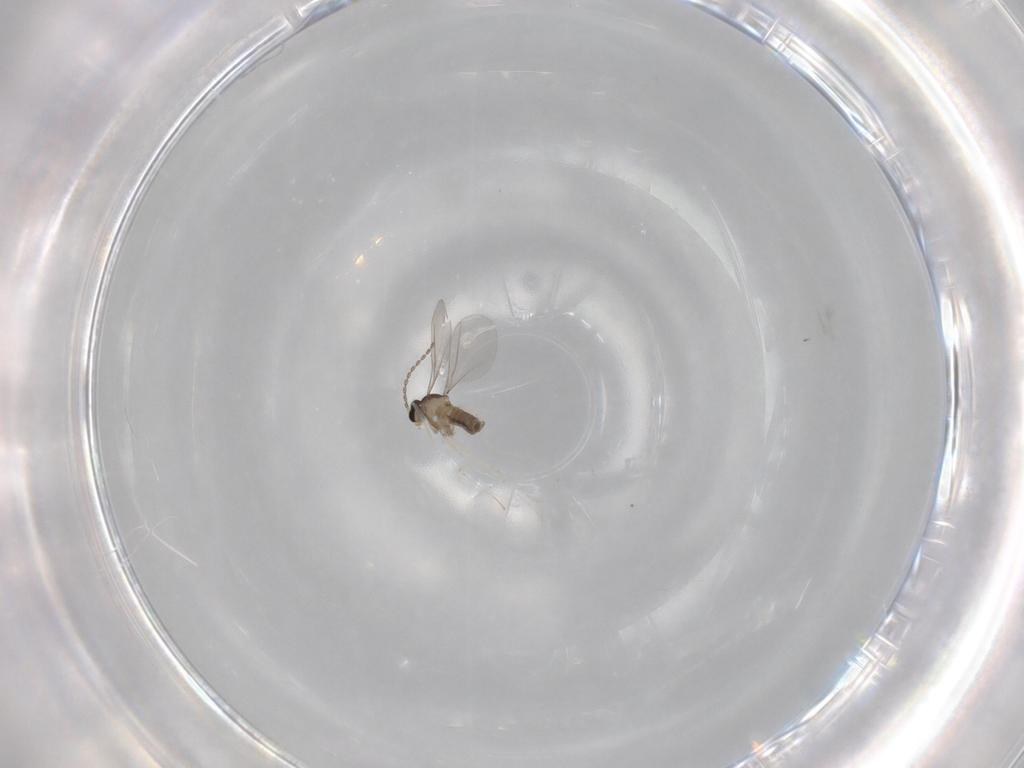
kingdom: Animalia
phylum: Arthropoda
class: Insecta
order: Diptera
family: Cecidomyiidae
